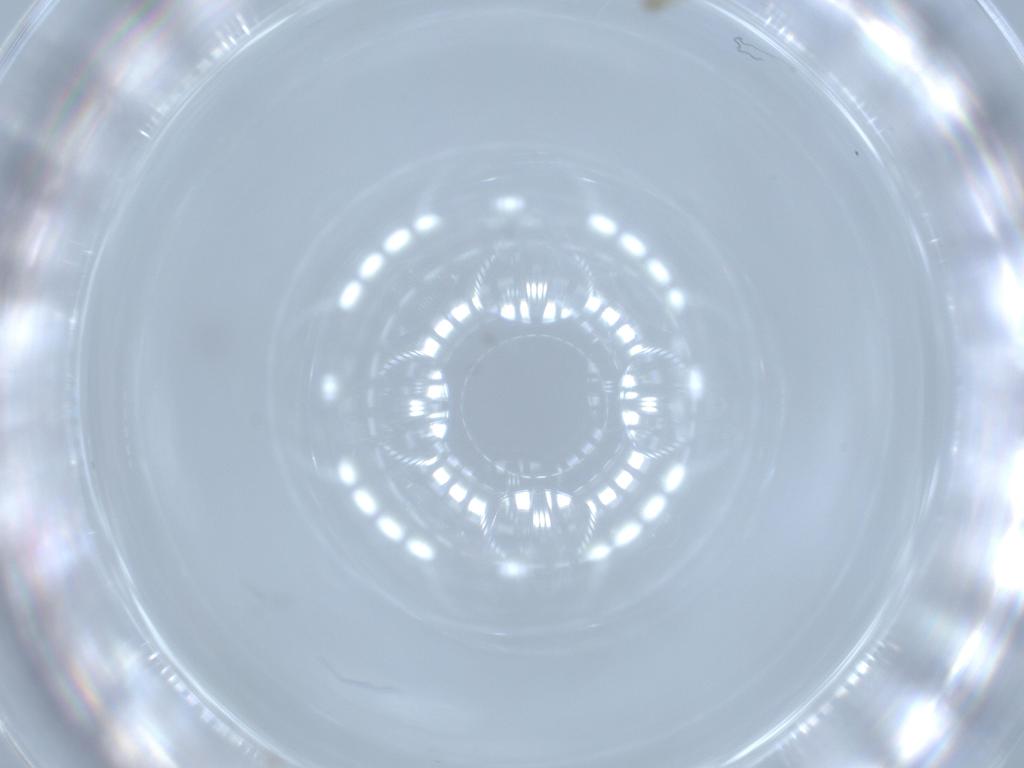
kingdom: Animalia
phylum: Arthropoda
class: Insecta
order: Hemiptera
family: Aleyrodidae
